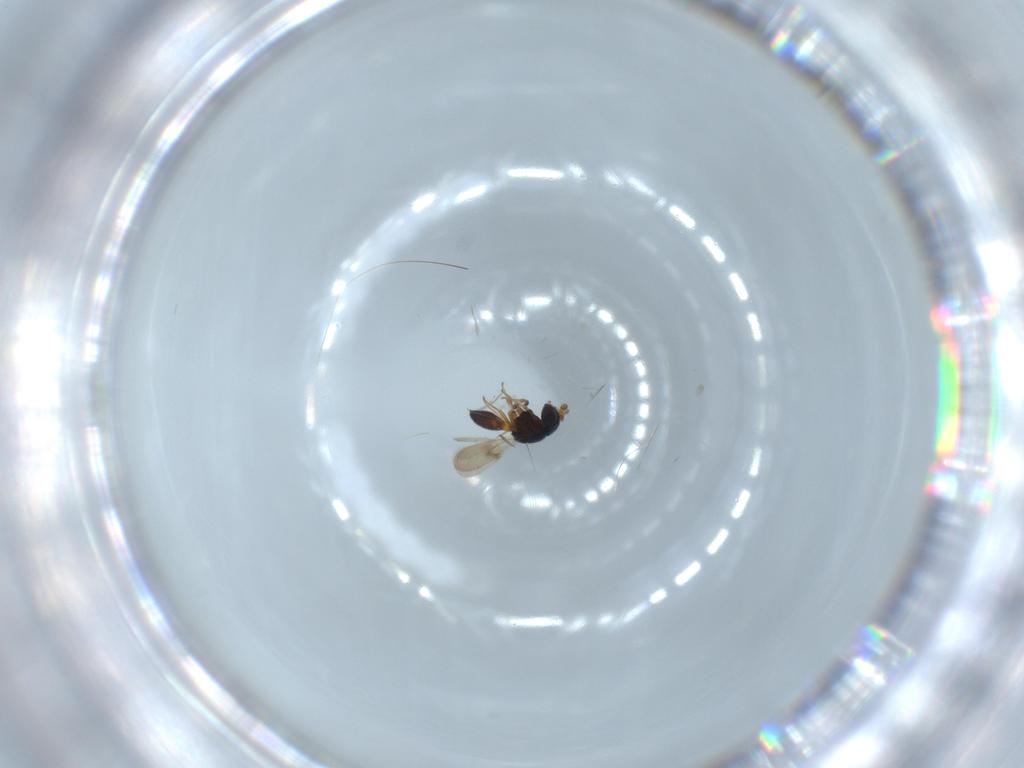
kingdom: Animalia
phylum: Arthropoda
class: Insecta
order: Hymenoptera
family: Scelionidae
